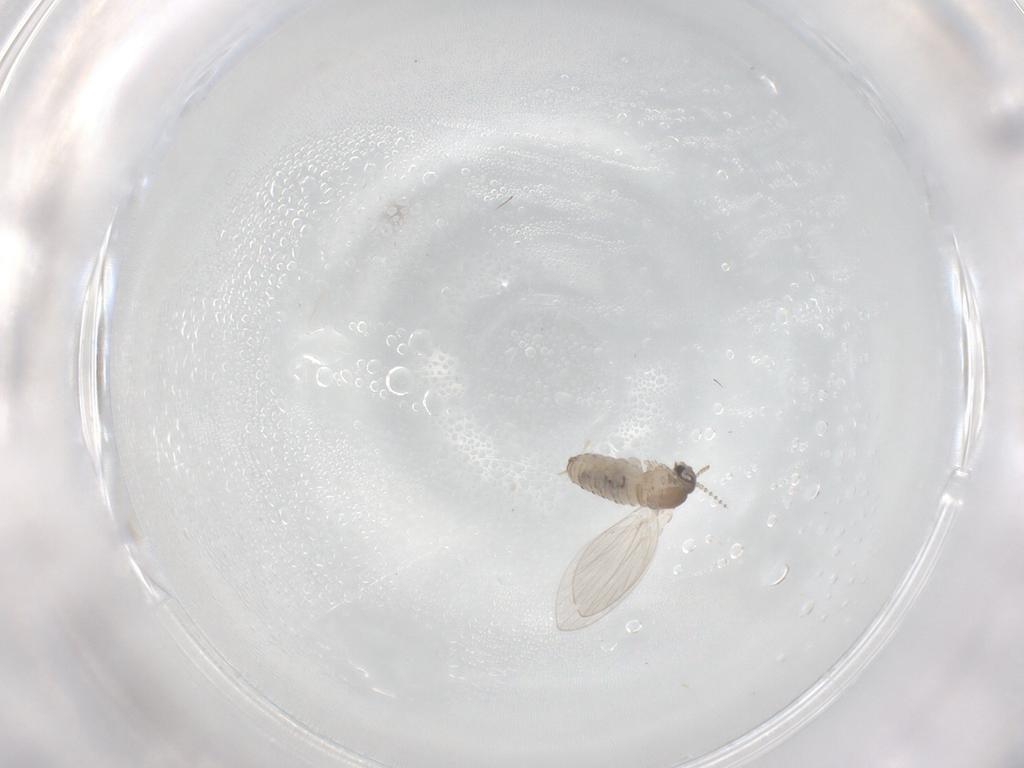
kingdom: Animalia
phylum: Arthropoda
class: Insecta
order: Diptera
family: Psychodidae
